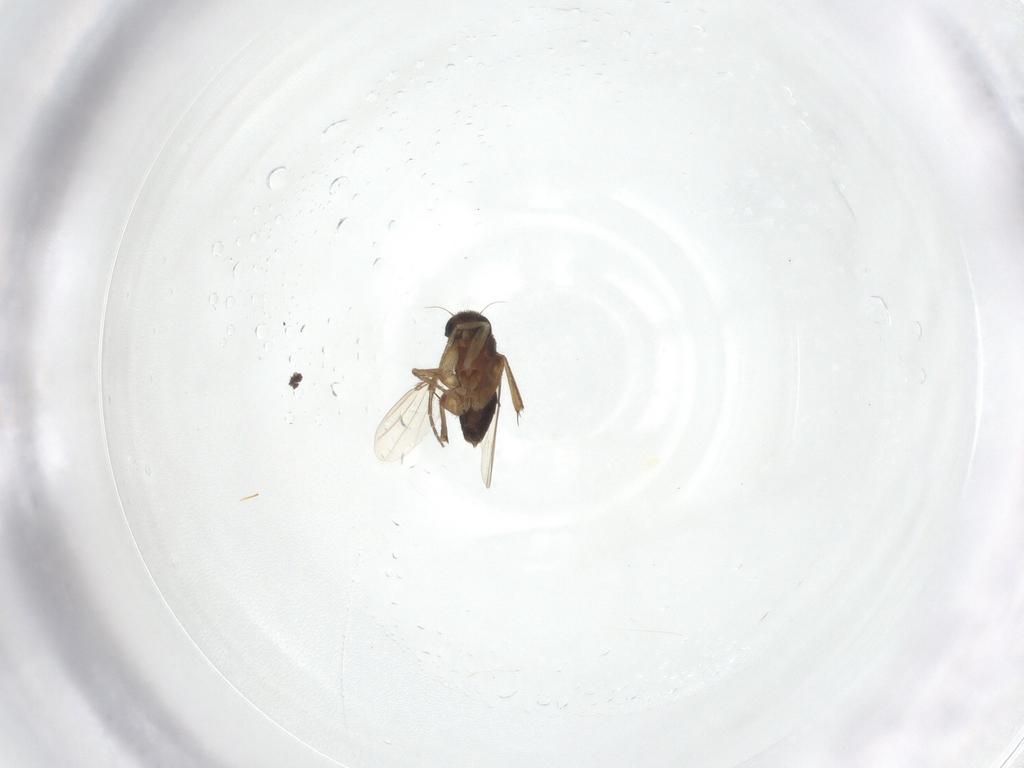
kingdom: Animalia
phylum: Arthropoda
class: Insecta
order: Diptera
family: Phoridae
